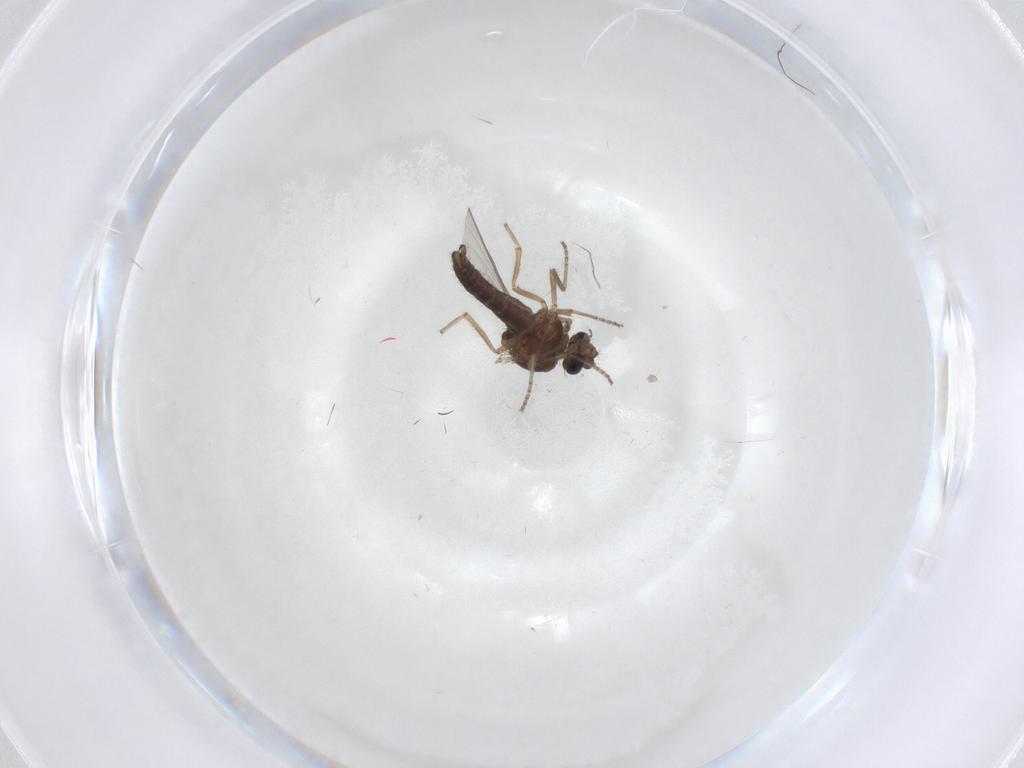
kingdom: Animalia
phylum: Arthropoda
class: Insecta
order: Diptera
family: Ceratopogonidae
